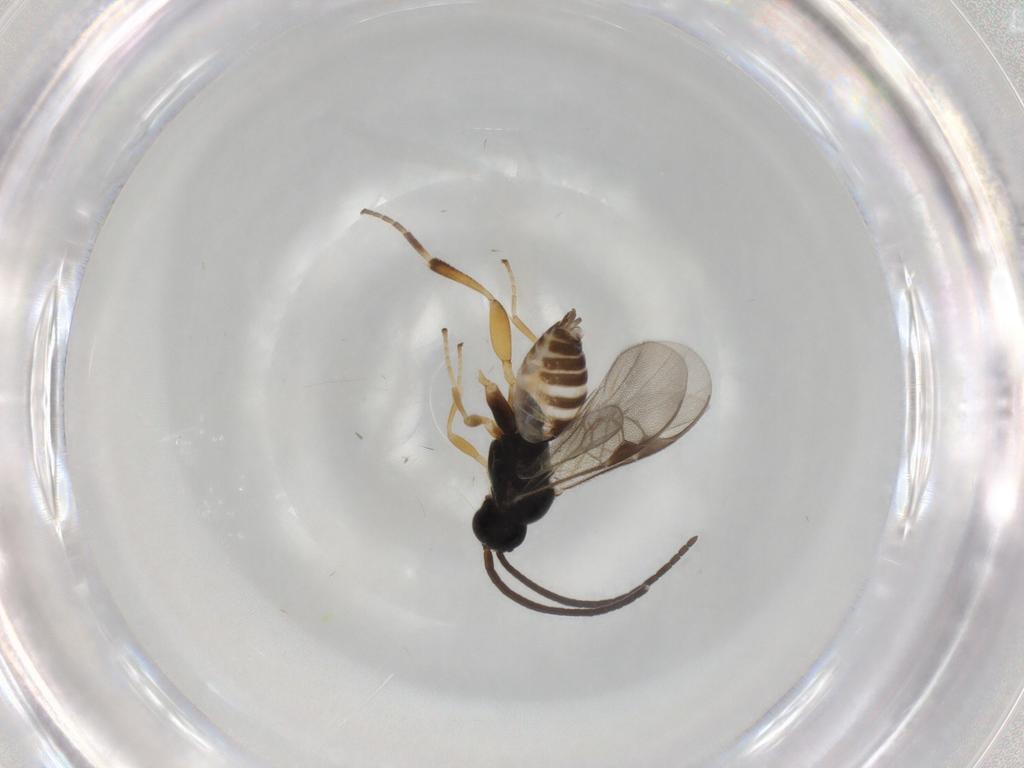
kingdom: Animalia
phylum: Arthropoda
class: Insecta
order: Hymenoptera
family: Braconidae
